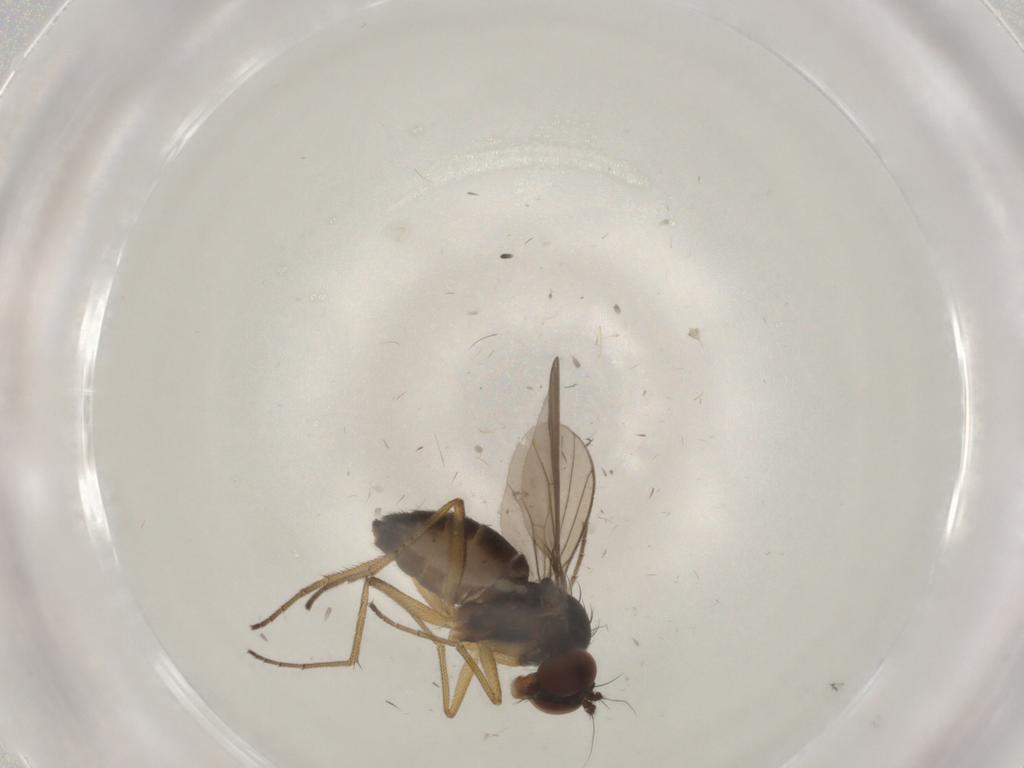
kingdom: Animalia
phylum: Arthropoda
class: Insecta
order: Diptera
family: Dolichopodidae
